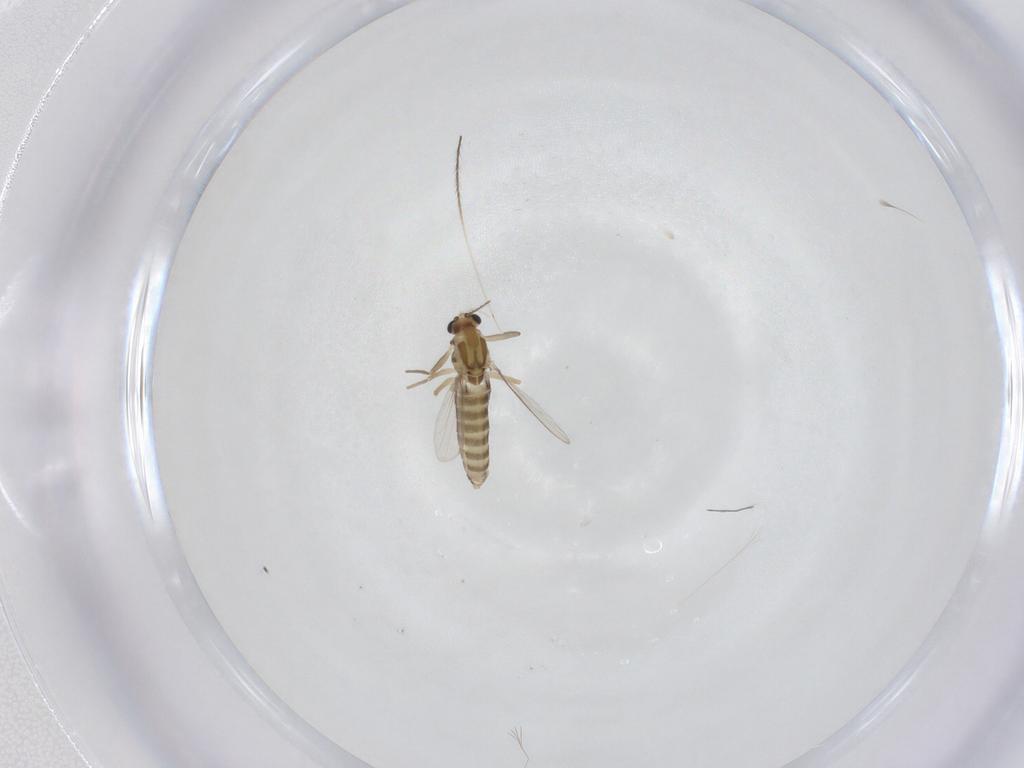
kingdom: Animalia
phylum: Arthropoda
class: Insecta
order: Diptera
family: Chironomidae
